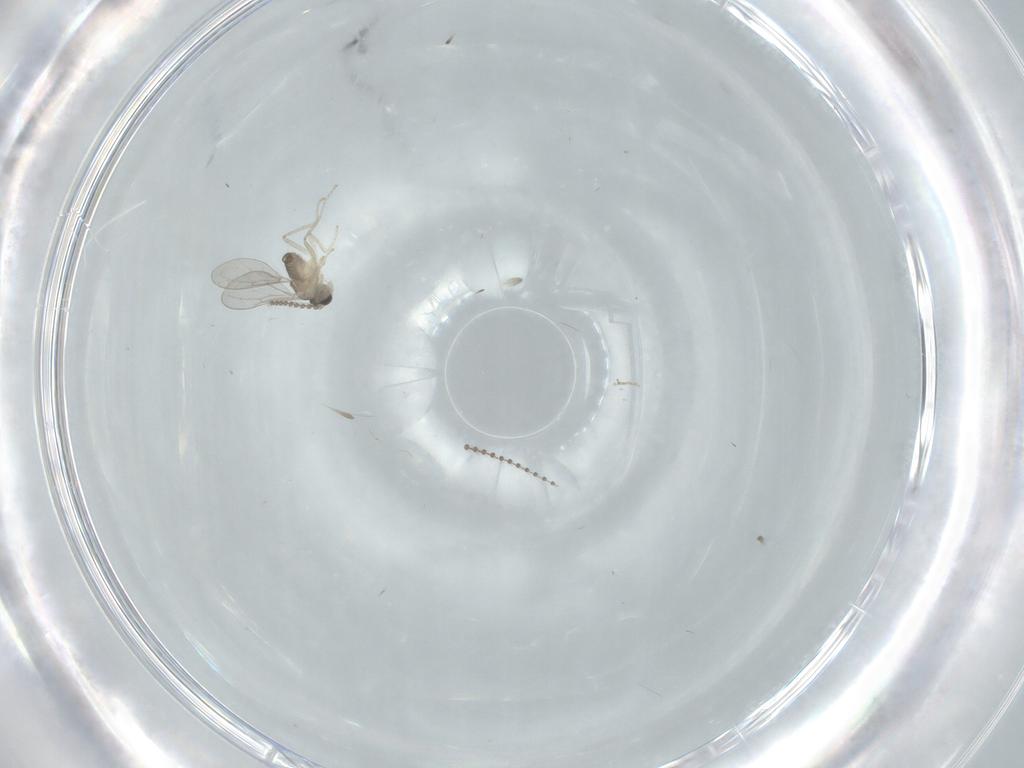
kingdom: Animalia
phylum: Arthropoda
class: Insecta
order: Diptera
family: Cecidomyiidae
